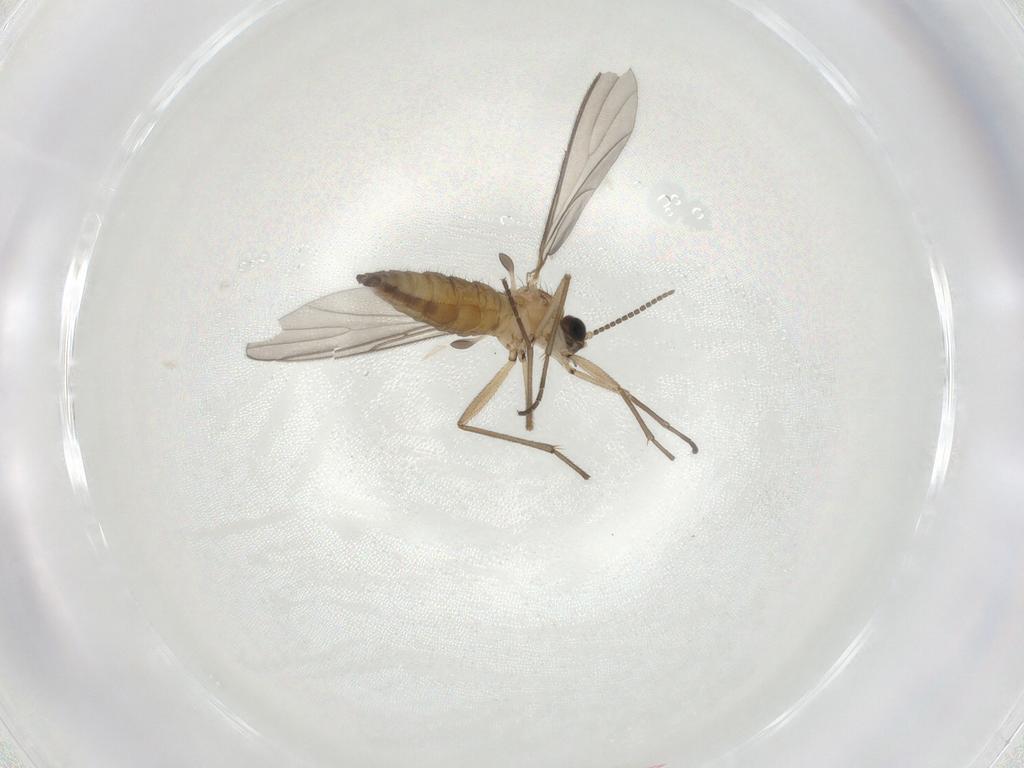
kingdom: Animalia
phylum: Arthropoda
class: Insecta
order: Diptera
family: Sciaridae
